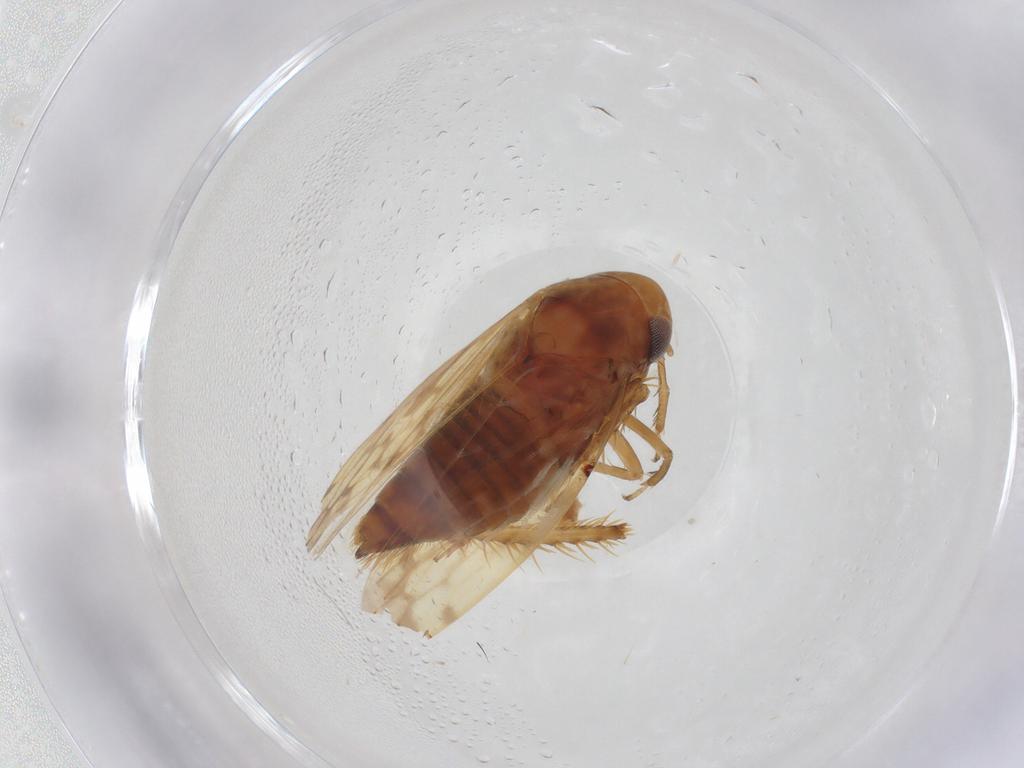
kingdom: Animalia
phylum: Arthropoda
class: Insecta
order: Hemiptera
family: Cicadellidae
